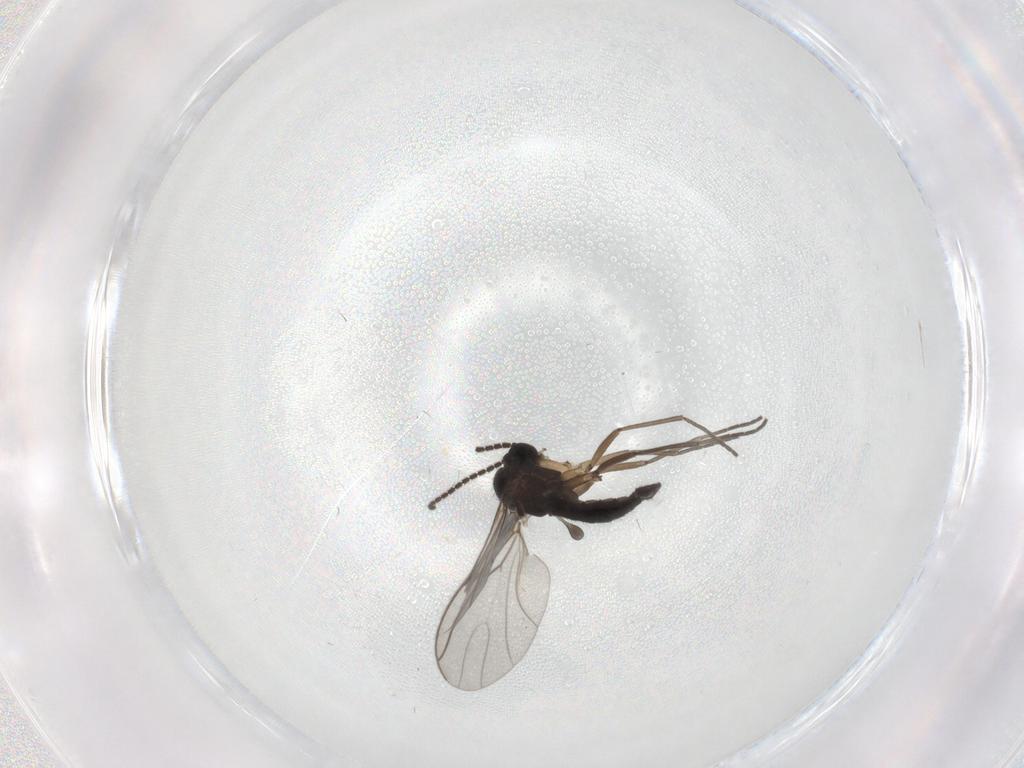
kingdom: Animalia
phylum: Arthropoda
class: Insecta
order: Diptera
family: Sciaridae
